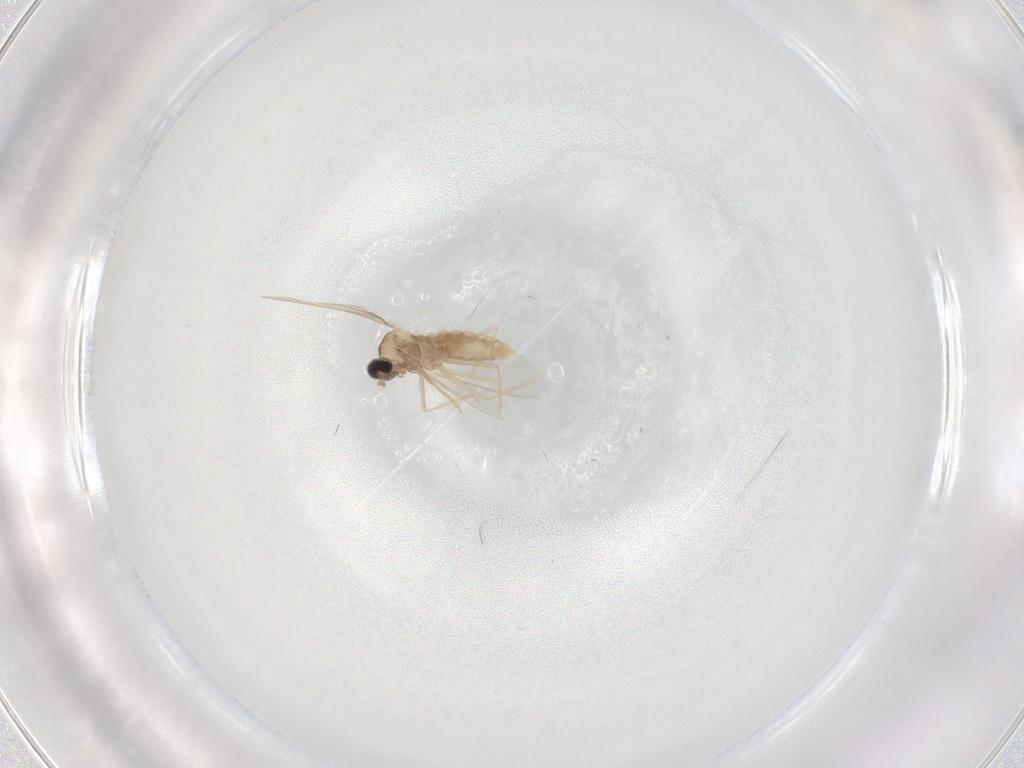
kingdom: Animalia
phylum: Arthropoda
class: Insecta
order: Diptera
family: Cecidomyiidae
